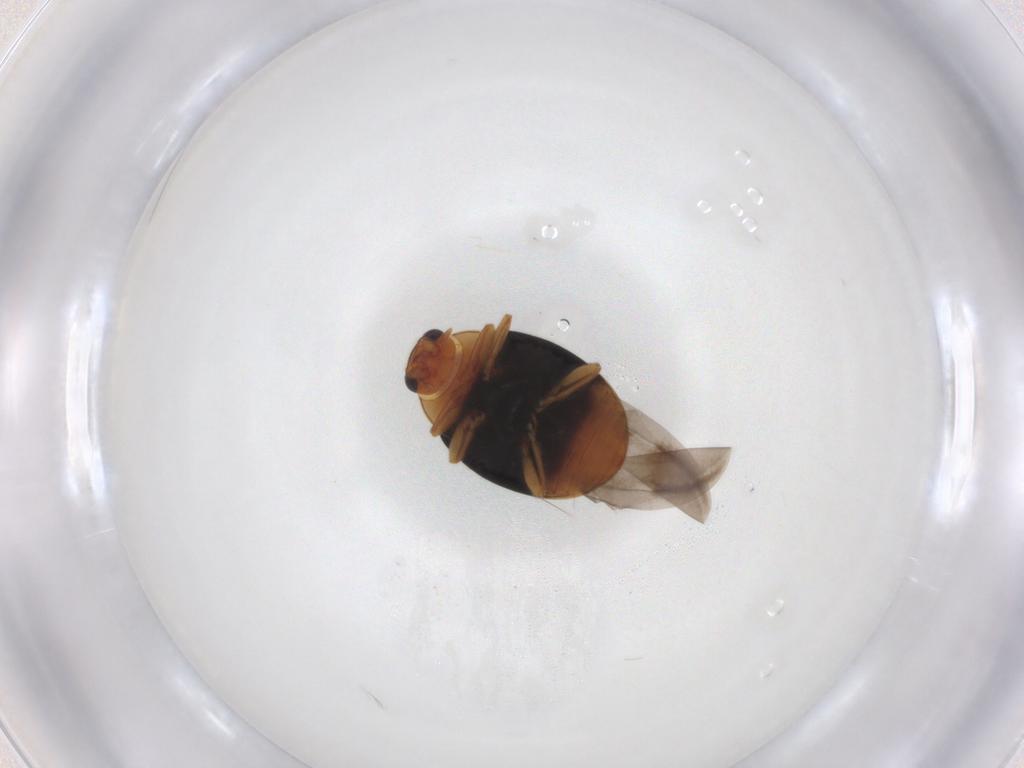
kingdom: Animalia
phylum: Arthropoda
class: Insecta
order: Coleoptera
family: Coccinellidae
